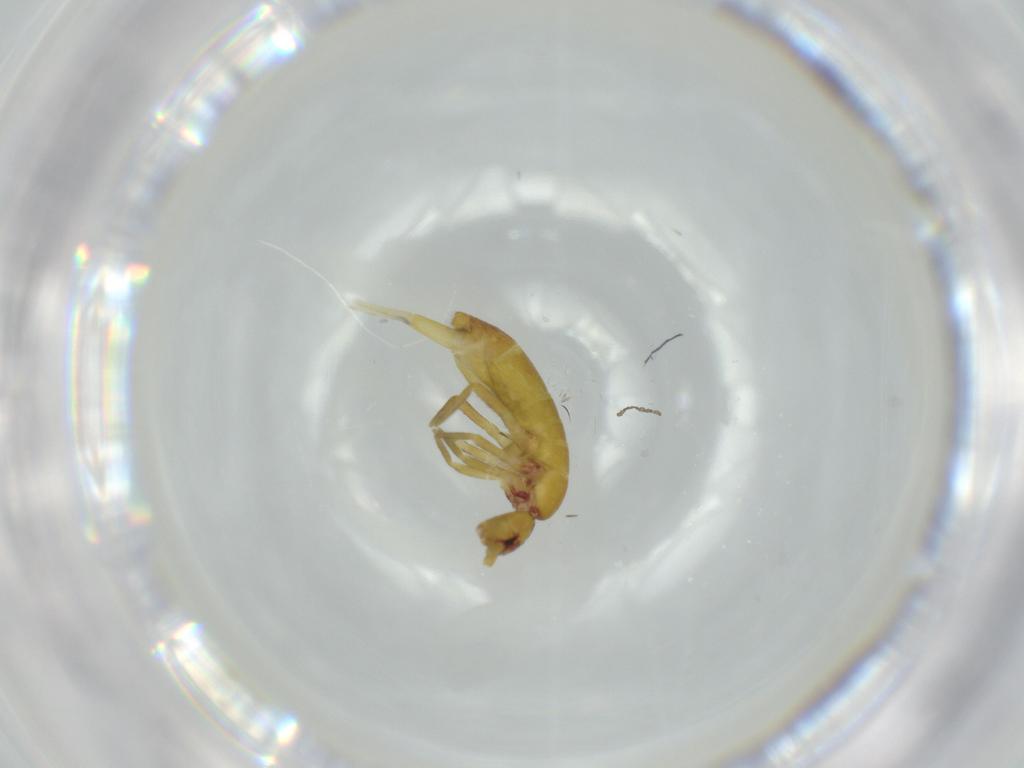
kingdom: Animalia
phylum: Arthropoda
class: Collembola
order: Entomobryomorpha
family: Tomoceridae
